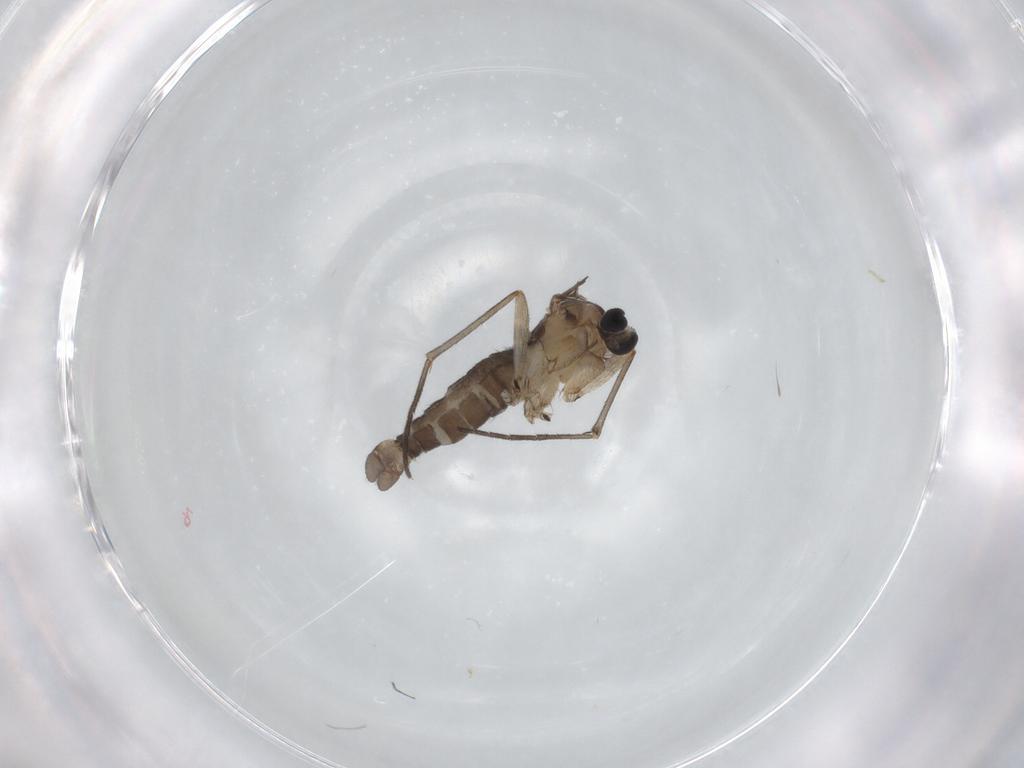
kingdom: Animalia
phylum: Arthropoda
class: Insecta
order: Diptera
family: Sciaridae
